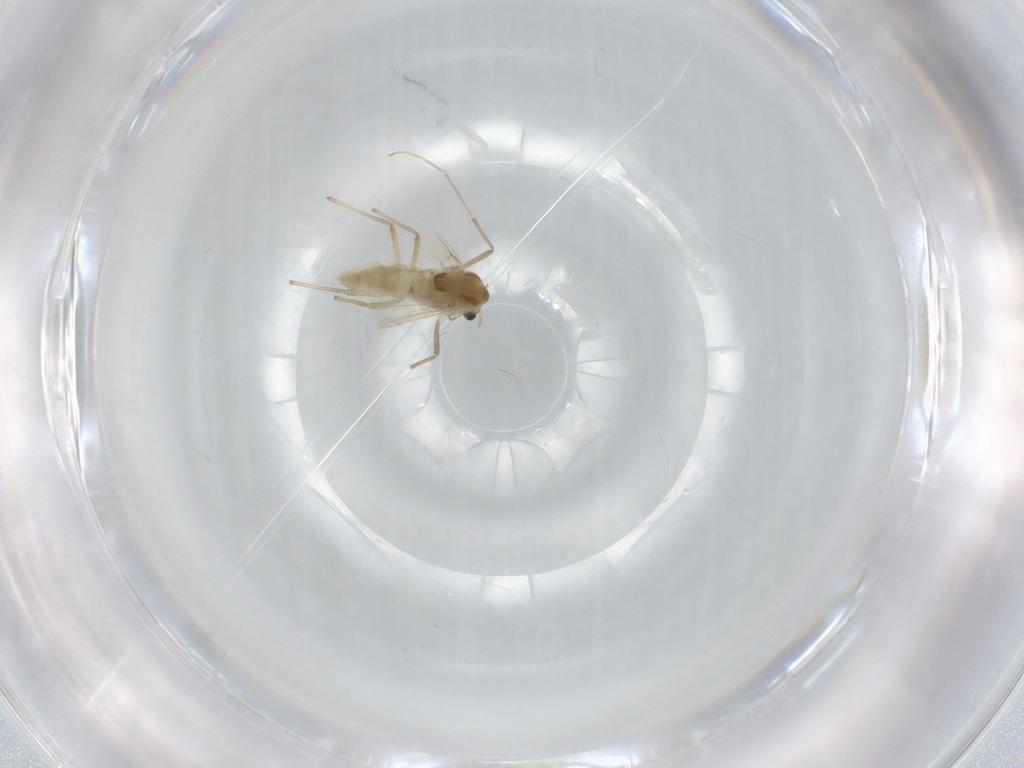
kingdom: Animalia
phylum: Arthropoda
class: Insecta
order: Diptera
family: Chironomidae
